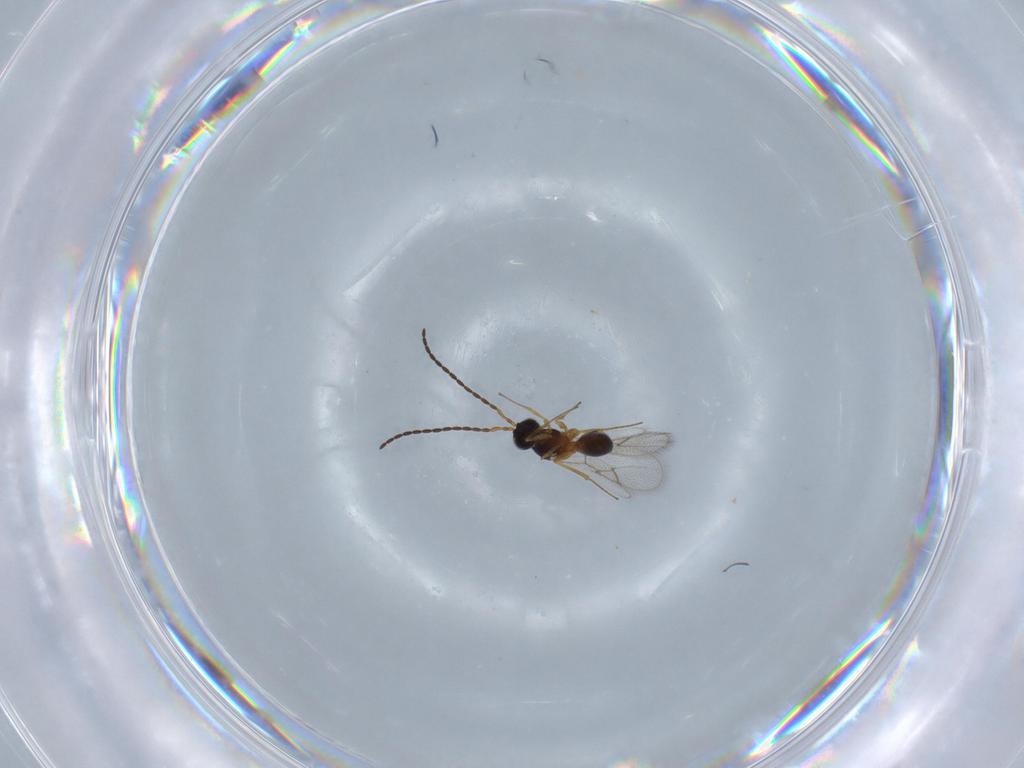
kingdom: Animalia
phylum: Arthropoda
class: Insecta
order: Hymenoptera
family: Figitidae
